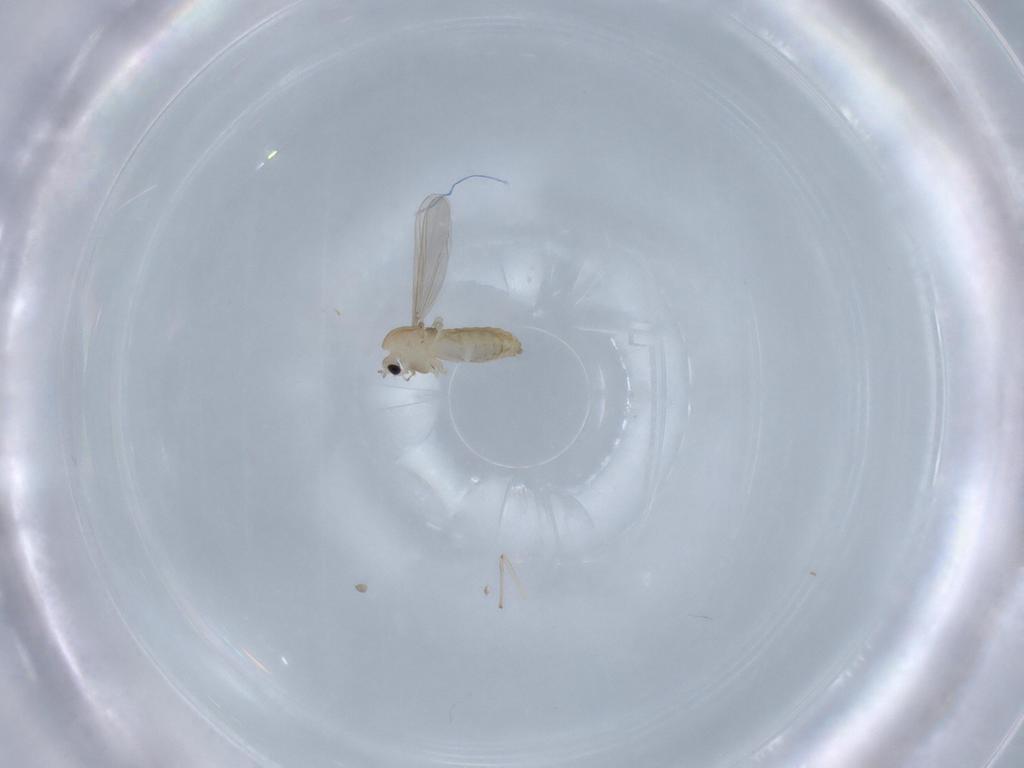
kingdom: Animalia
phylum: Arthropoda
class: Insecta
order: Diptera
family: Chironomidae
